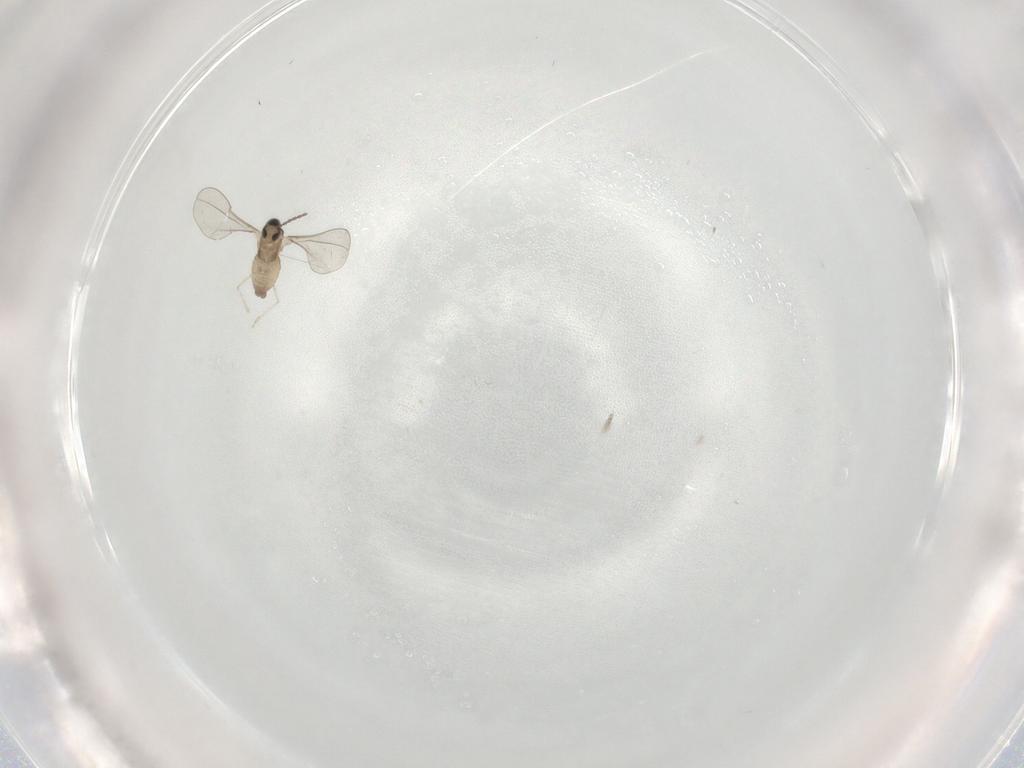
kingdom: Animalia
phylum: Arthropoda
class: Insecta
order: Diptera
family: Cecidomyiidae
